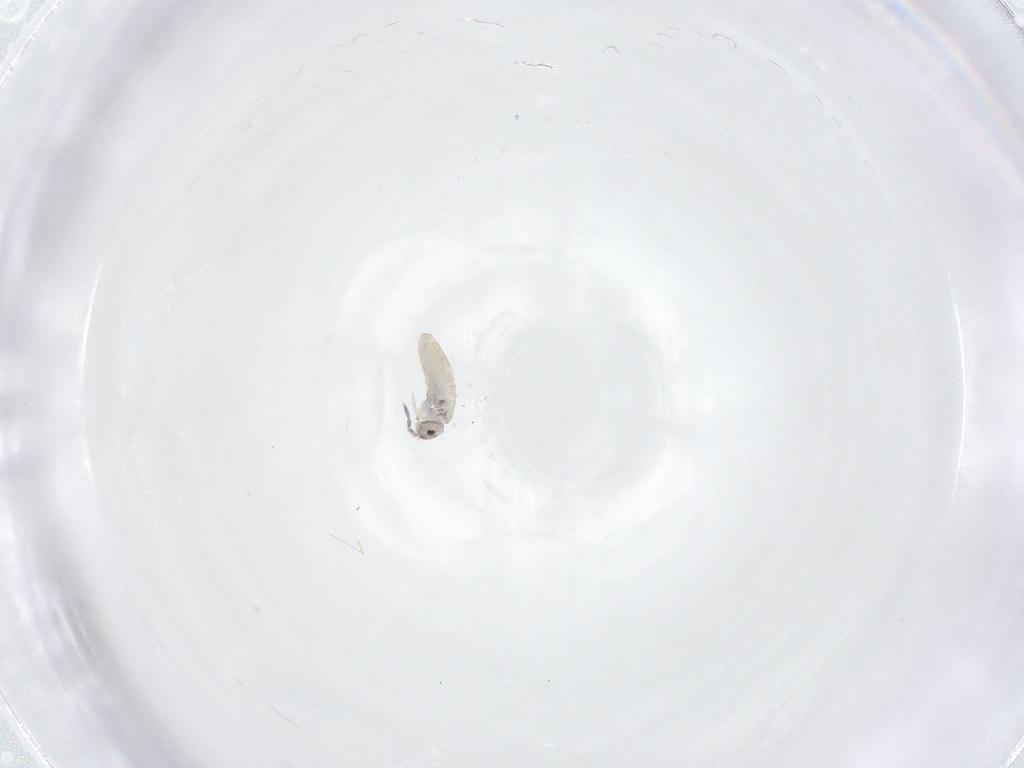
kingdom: Animalia
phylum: Arthropoda
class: Collembola
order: Entomobryomorpha
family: Entomobryidae
